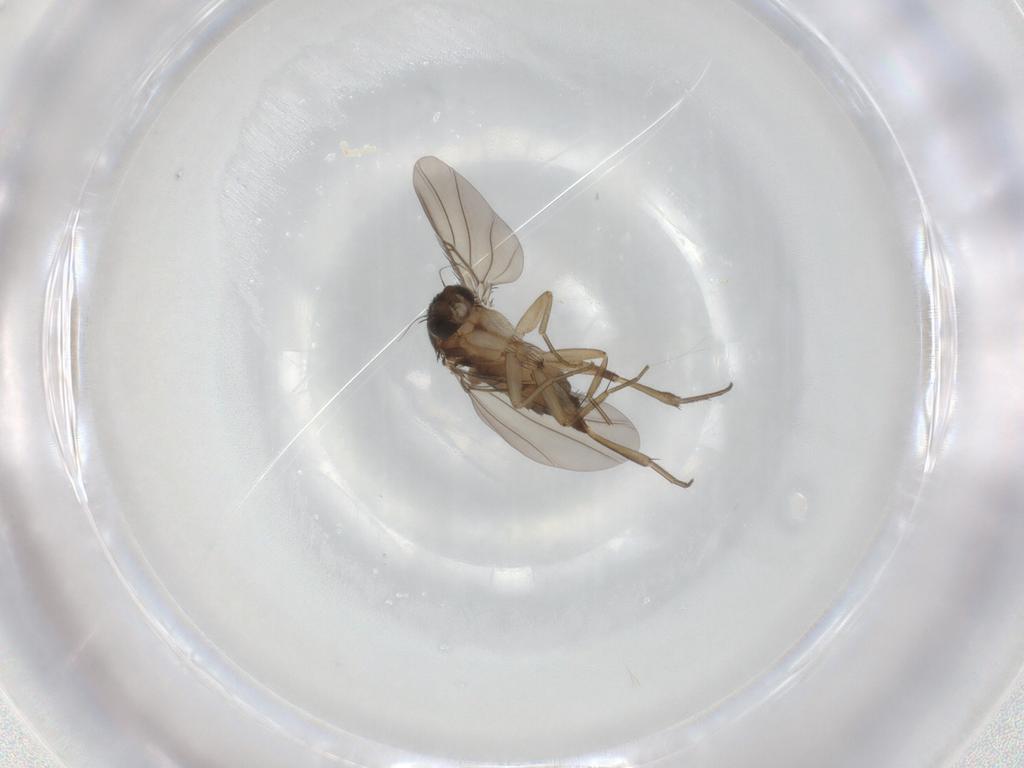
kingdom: Animalia
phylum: Arthropoda
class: Insecta
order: Diptera
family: Phoridae
